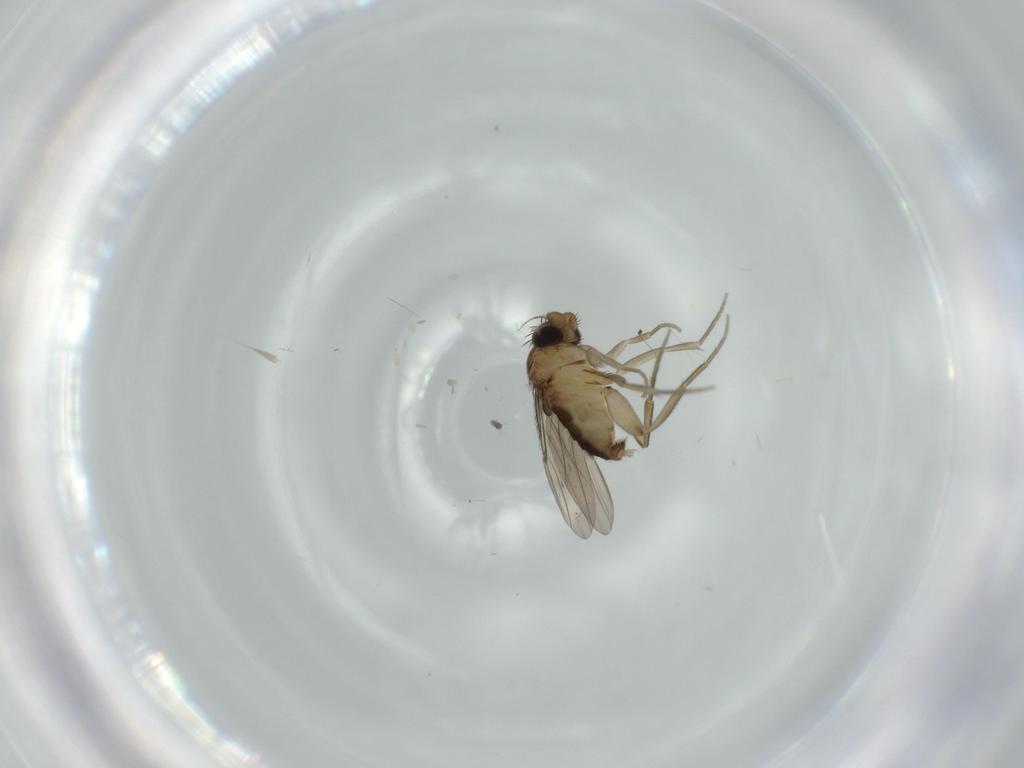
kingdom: Animalia
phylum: Arthropoda
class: Insecta
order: Diptera
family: Phoridae
